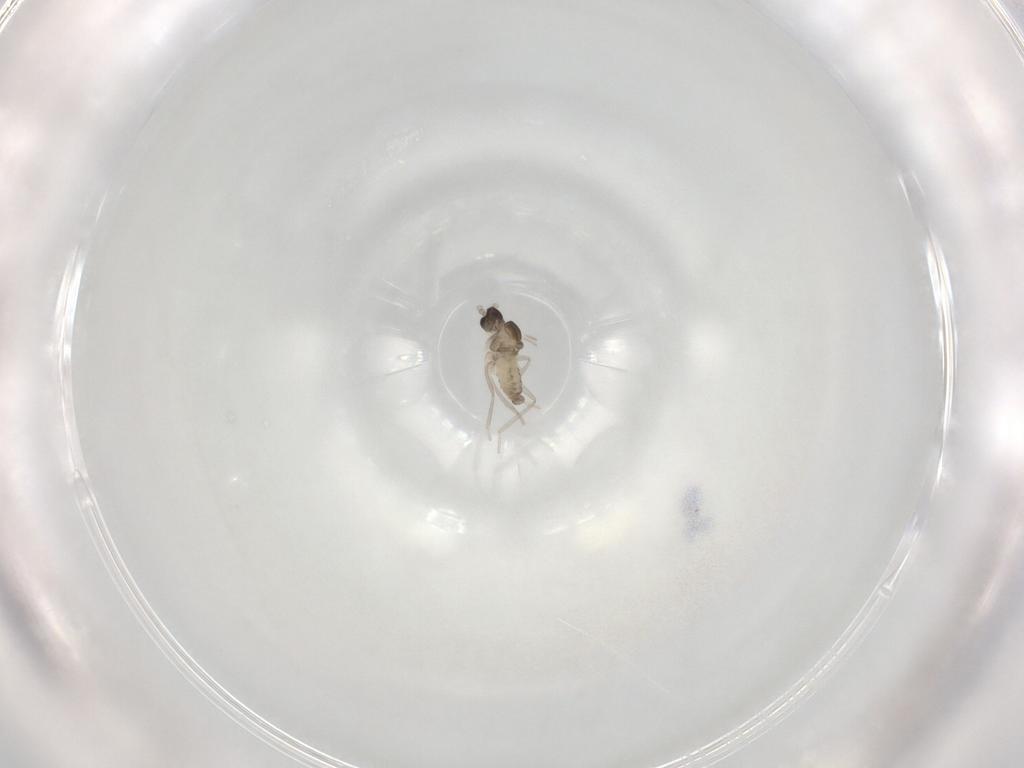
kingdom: Animalia
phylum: Arthropoda
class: Insecta
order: Diptera
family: Cecidomyiidae
